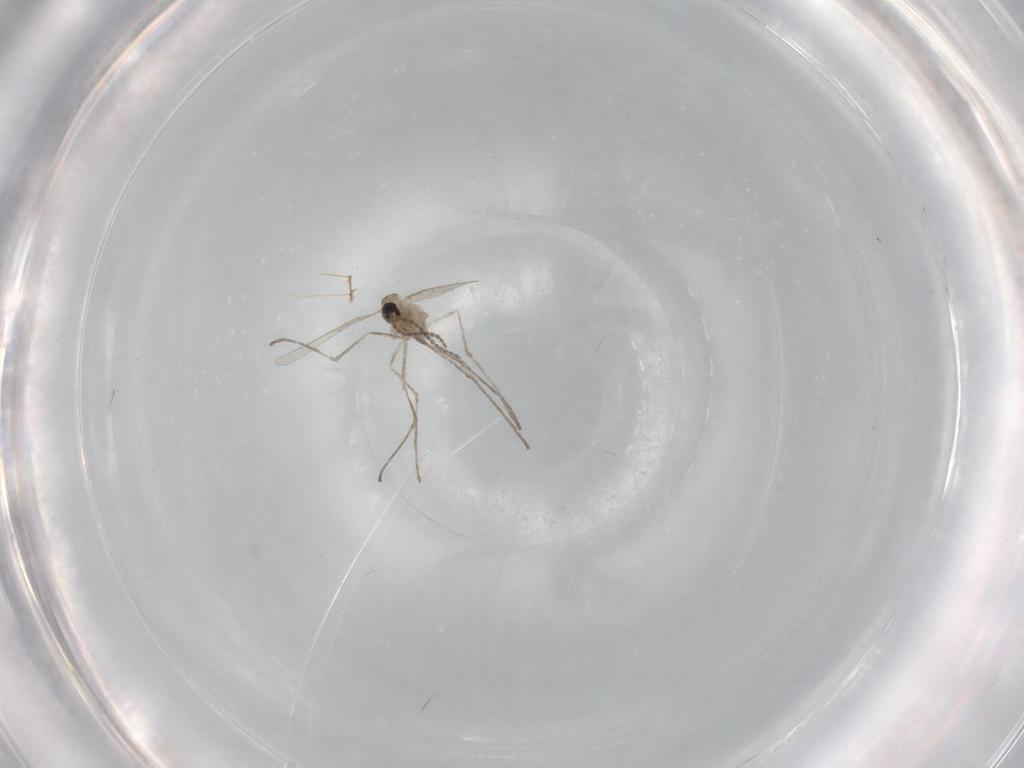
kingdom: Animalia
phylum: Arthropoda
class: Insecta
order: Diptera
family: Cecidomyiidae
